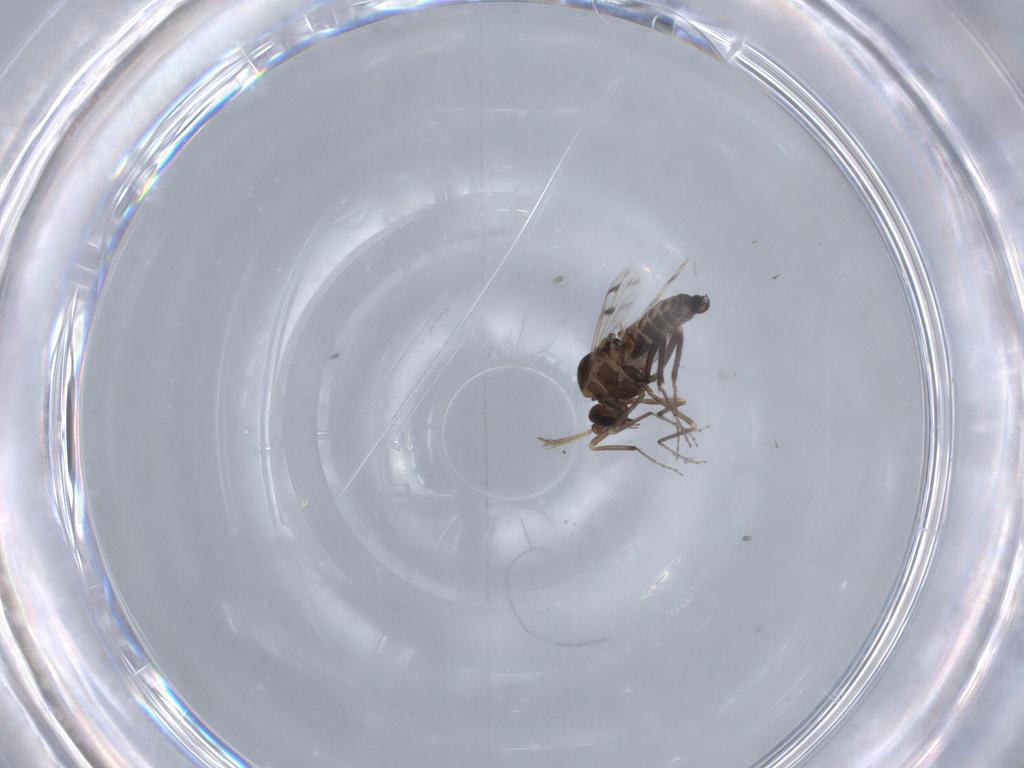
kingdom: Animalia
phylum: Arthropoda
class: Insecta
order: Diptera
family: Ceratopogonidae
